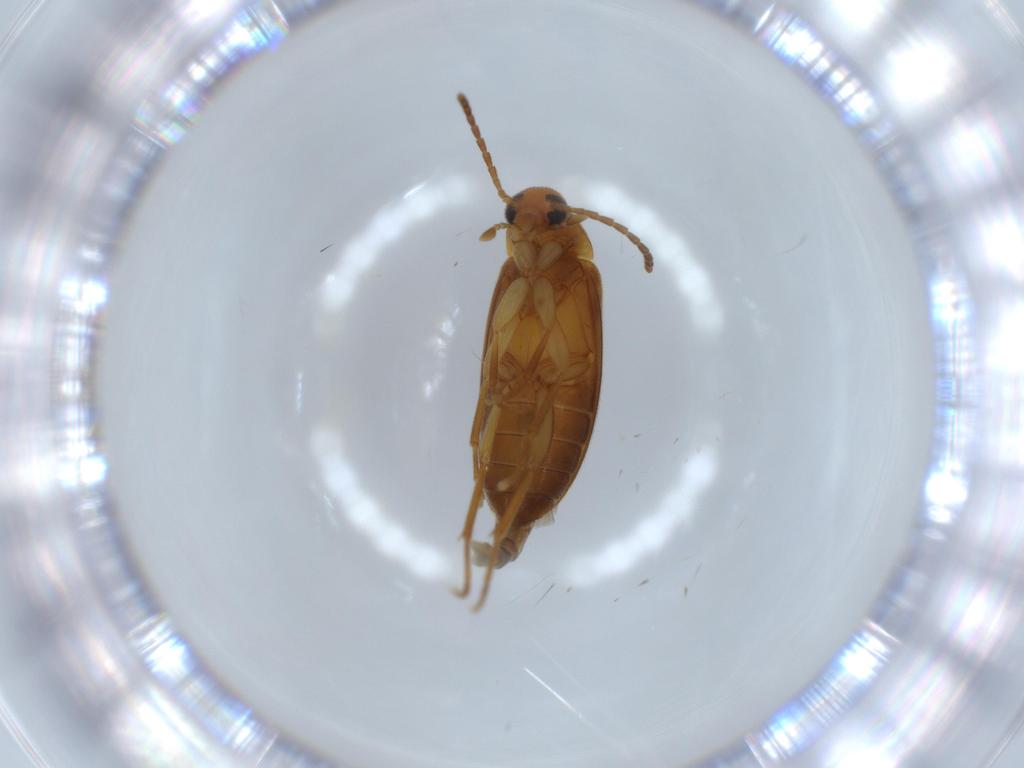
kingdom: Animalia
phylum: Arthropoda
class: Insecta
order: Coleoptera
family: Scraptiidae
